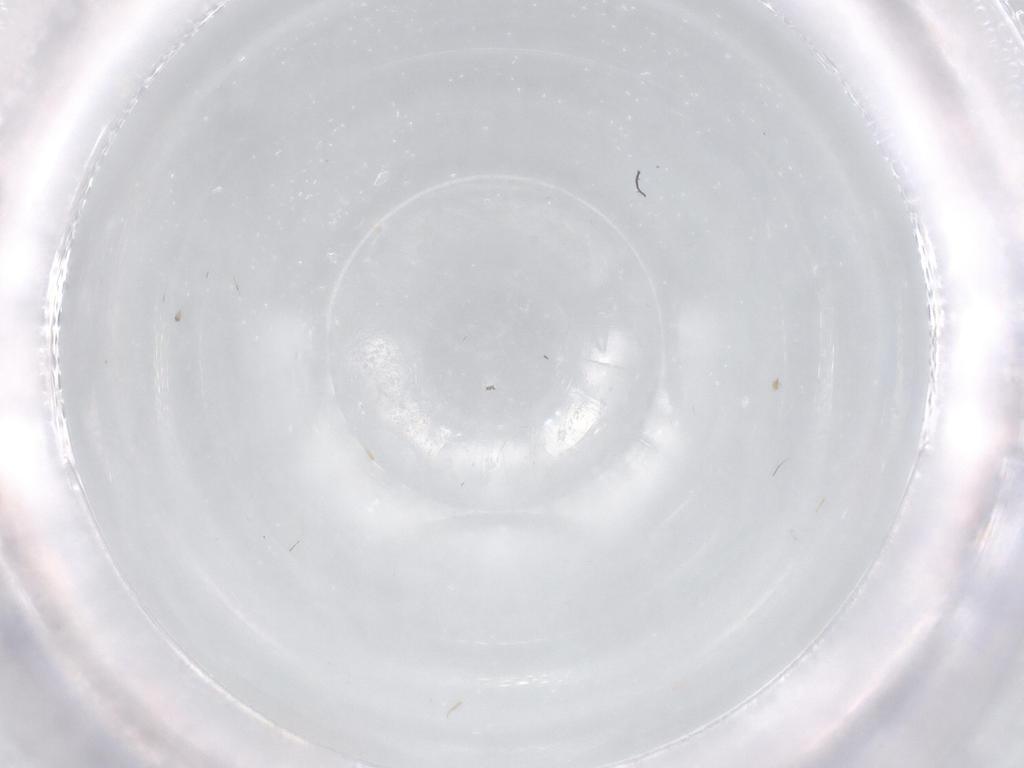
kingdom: Animalia
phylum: Arthropoda
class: Insecta
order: Diptera
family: Cecidomyiidae
